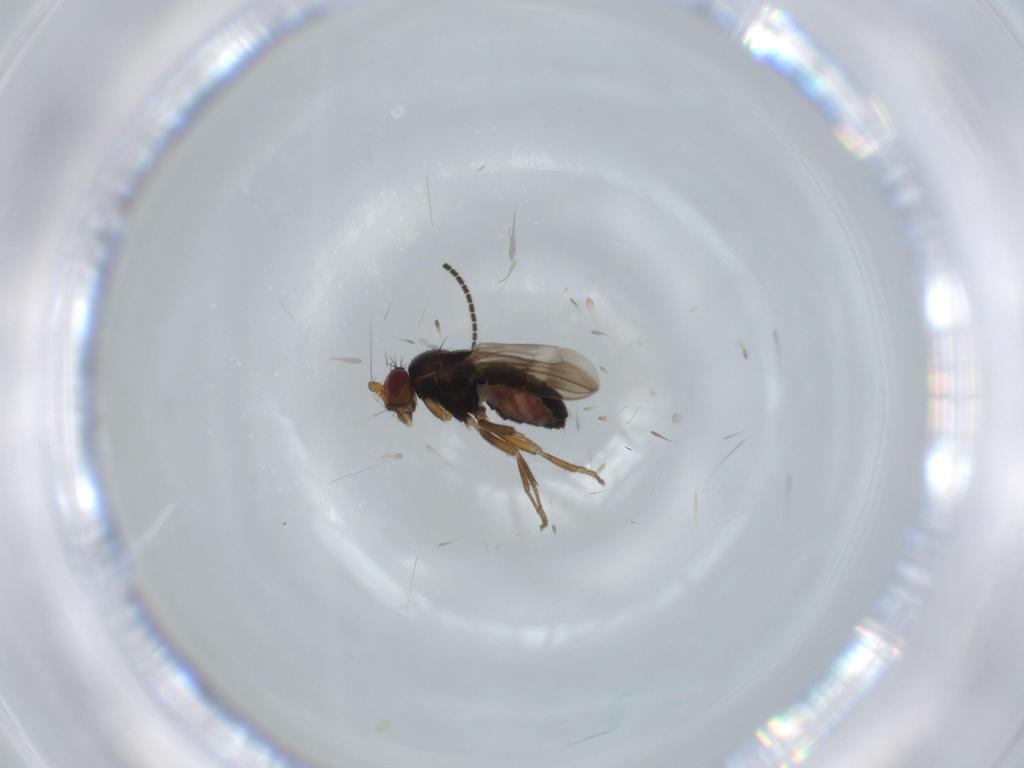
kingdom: Animalia
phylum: Arthropoda
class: Insecta
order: Diptera
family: Sphaeroceridae
